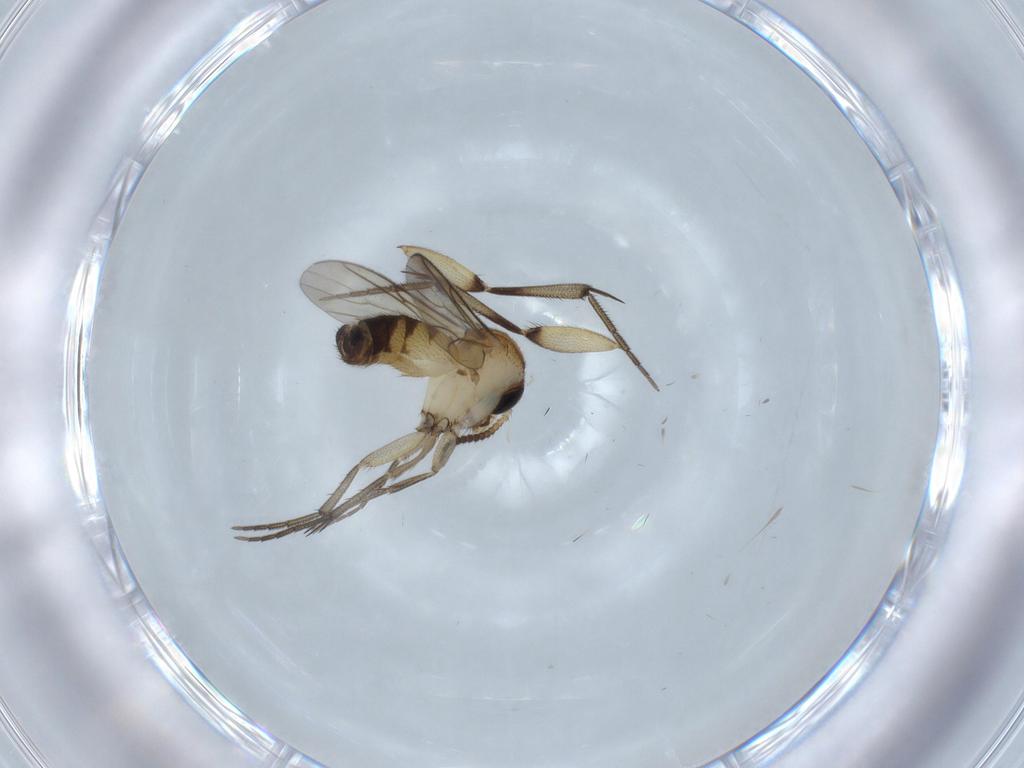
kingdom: Animalia
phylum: Arthropoda
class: Insecta
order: Diptera
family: Mycetophilidae
